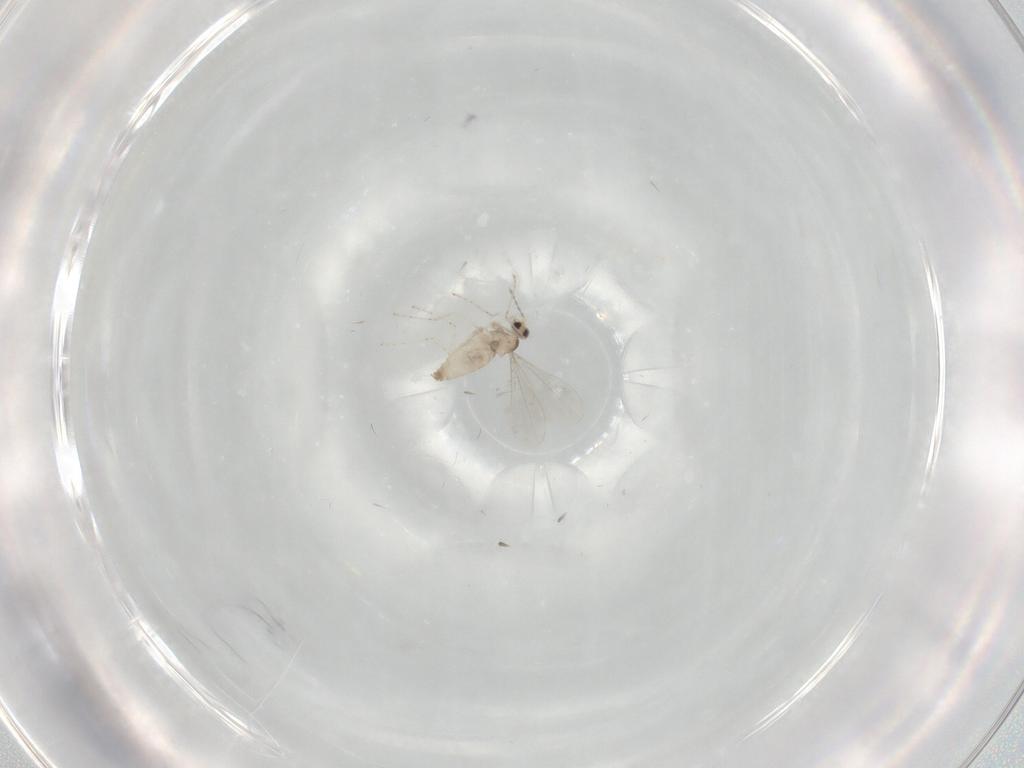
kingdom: Animalia
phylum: Arthropoda
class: Insecta
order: Diptera
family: Cecidomyiidae
